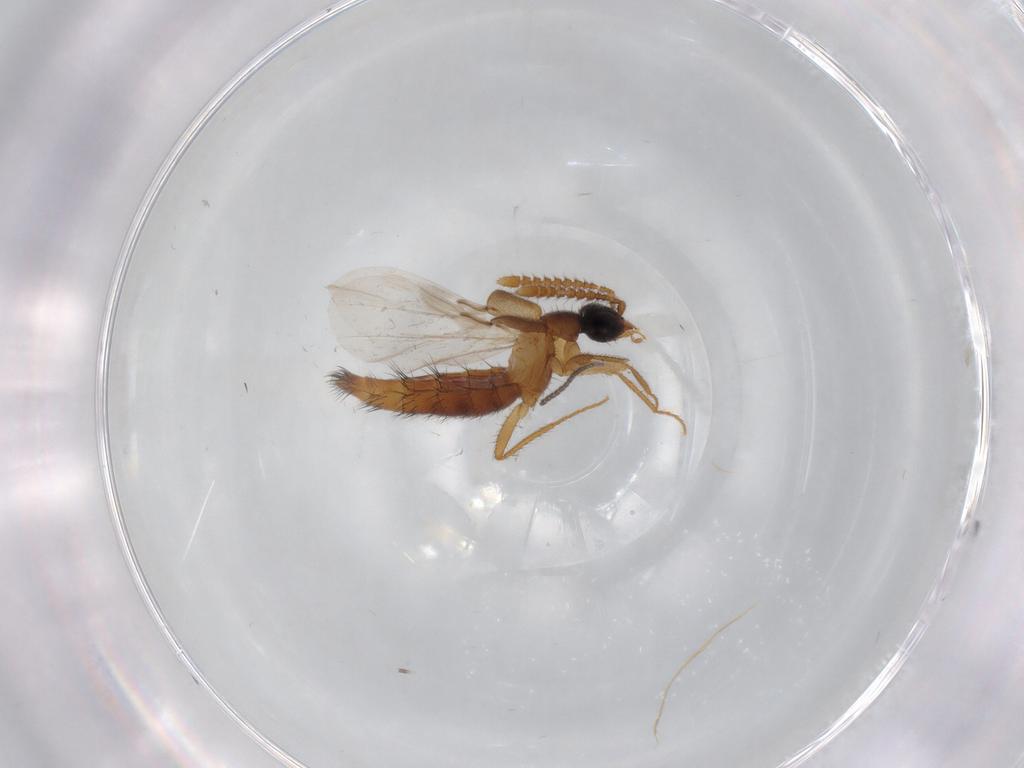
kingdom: Animalia
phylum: Arthropoda
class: Insecta
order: Coleoptera
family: Staphylinidae
